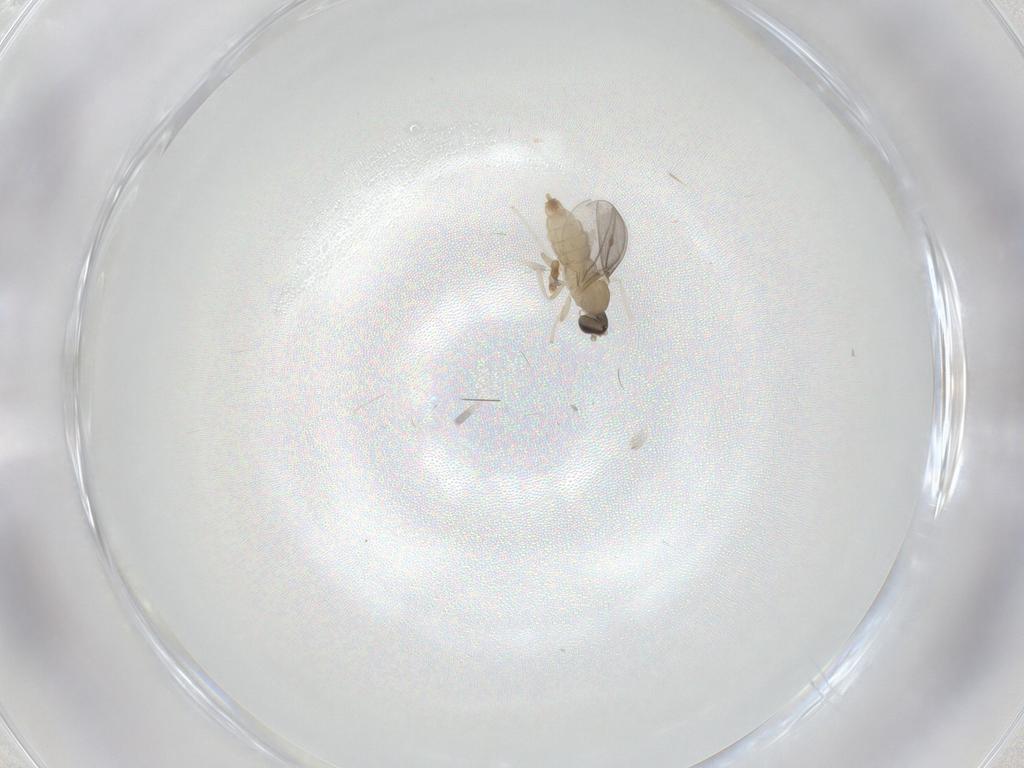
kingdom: Animalia
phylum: Arthropoda
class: Insecta
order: Diptera
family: Cecidomyiidae
